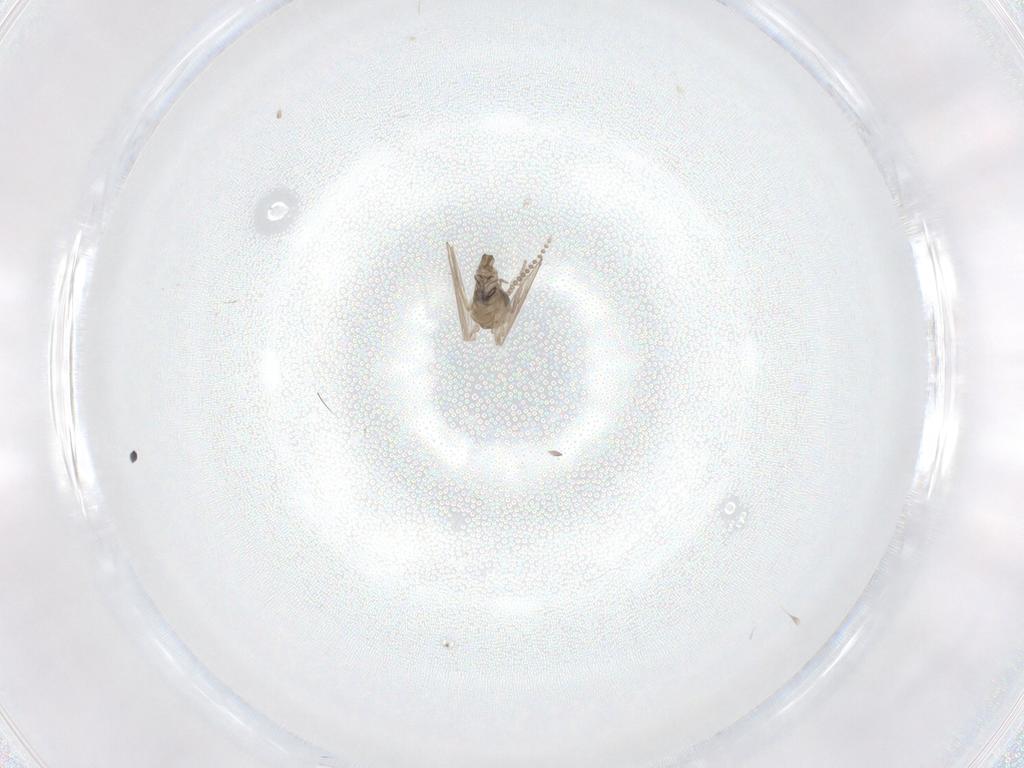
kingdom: Animalia
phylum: Arthropoda
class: Insecta
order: Diptera
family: Psychodidae
